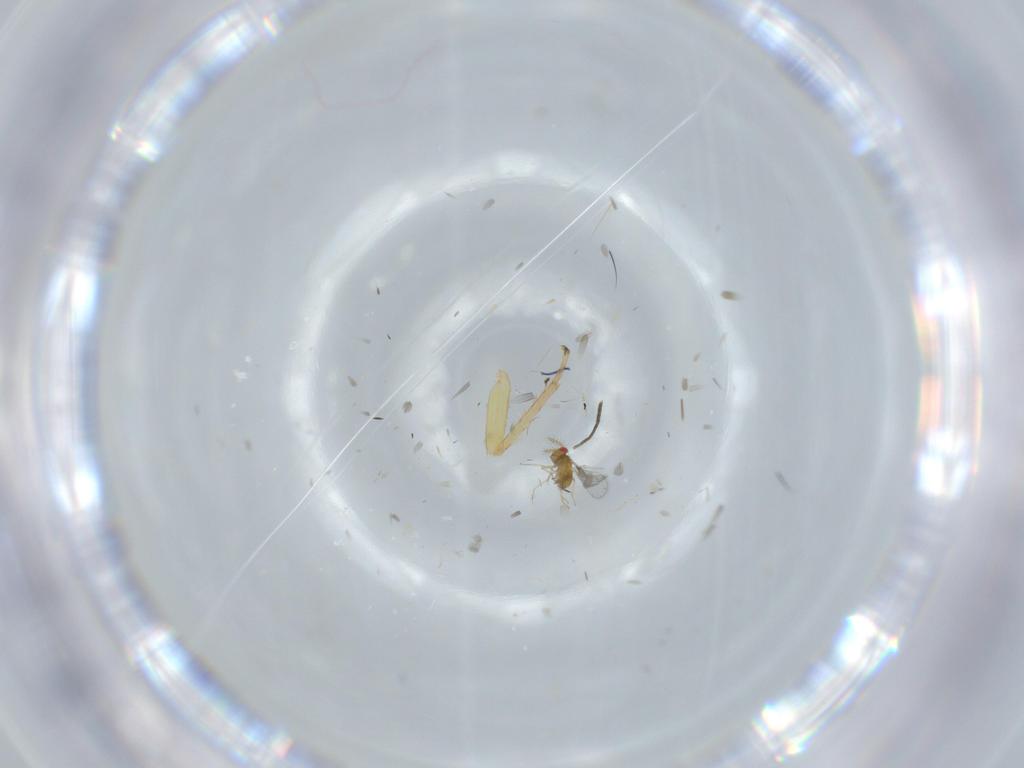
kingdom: Animalia
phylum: Arthropoda
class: Insecta
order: Hymenoptera
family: Trichogrammatidae
